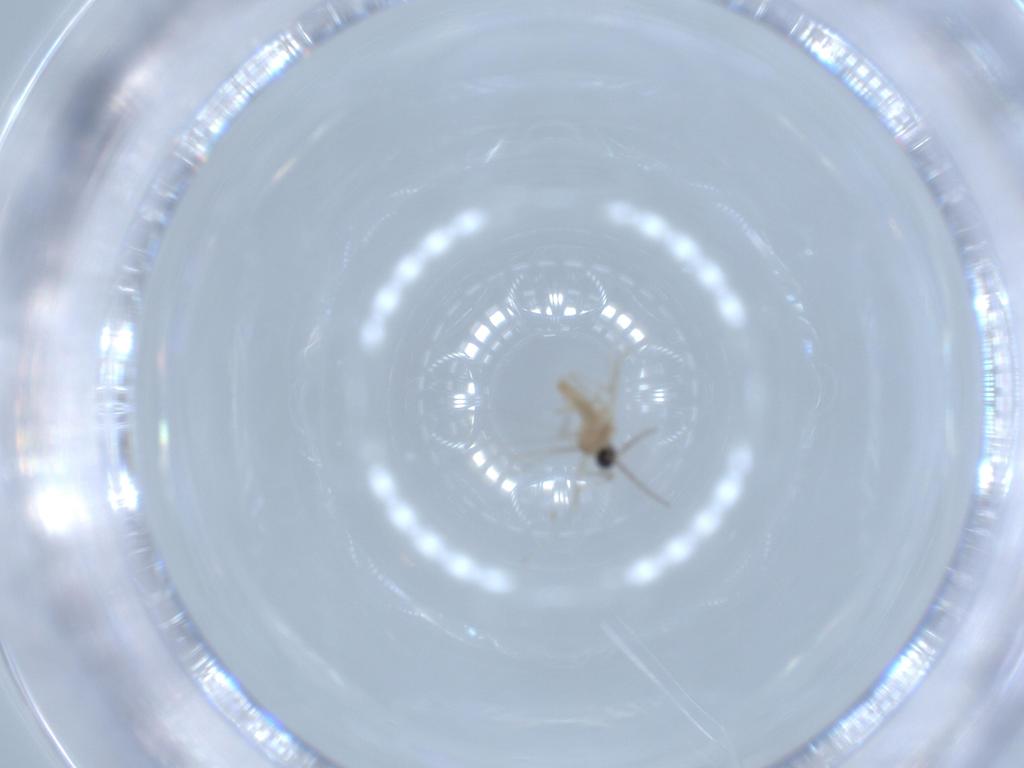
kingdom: Animalia
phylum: Arthropoda
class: Insecta
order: Diptera
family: Cecidomyiidae
